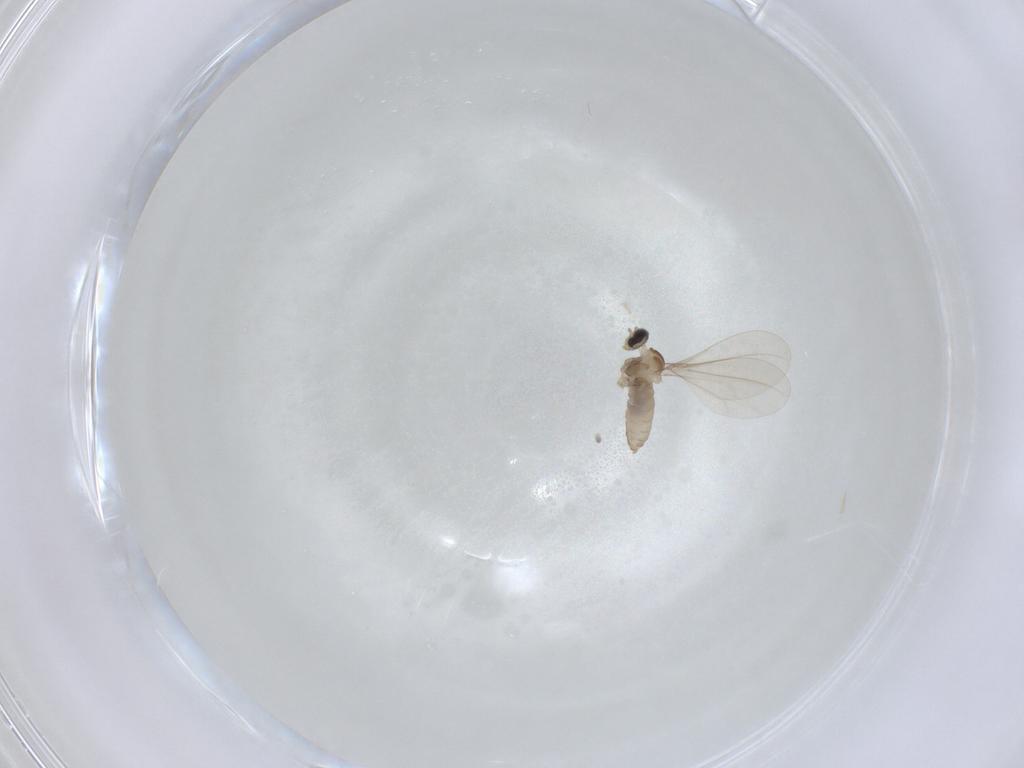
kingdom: Animalia
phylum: Arthropoda
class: Insecta
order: Diptera
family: Cecidomyiidae
